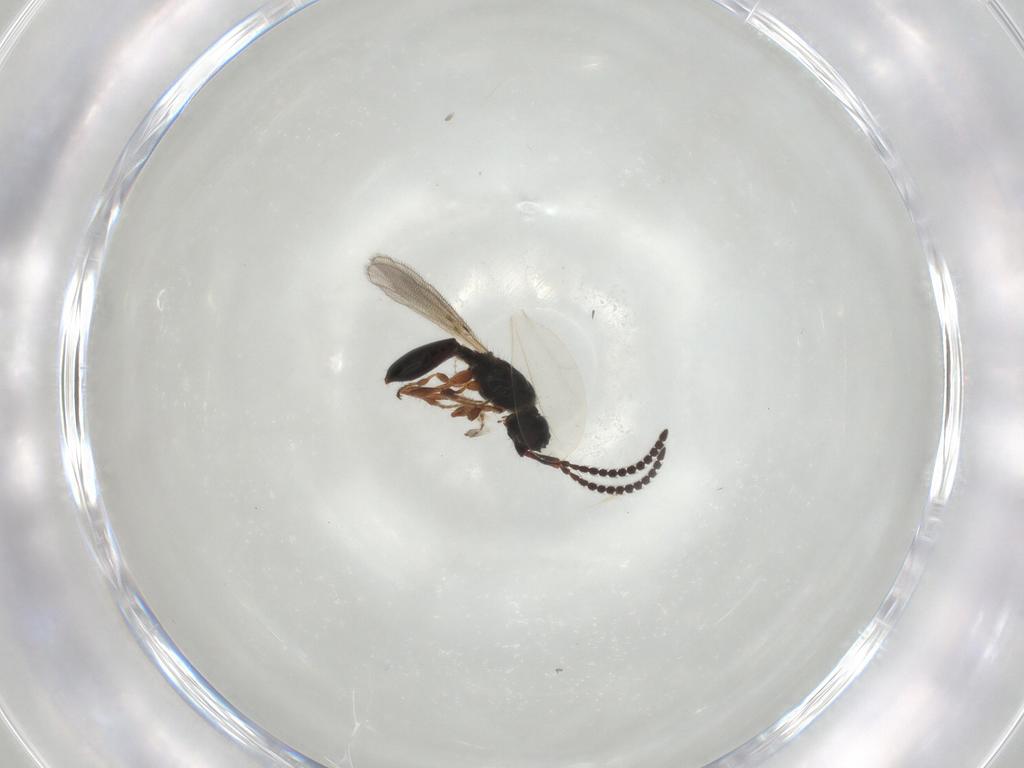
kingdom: Animalia
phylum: Arthropoda
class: Insecta
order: Hymenoptera
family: Diapriidae
